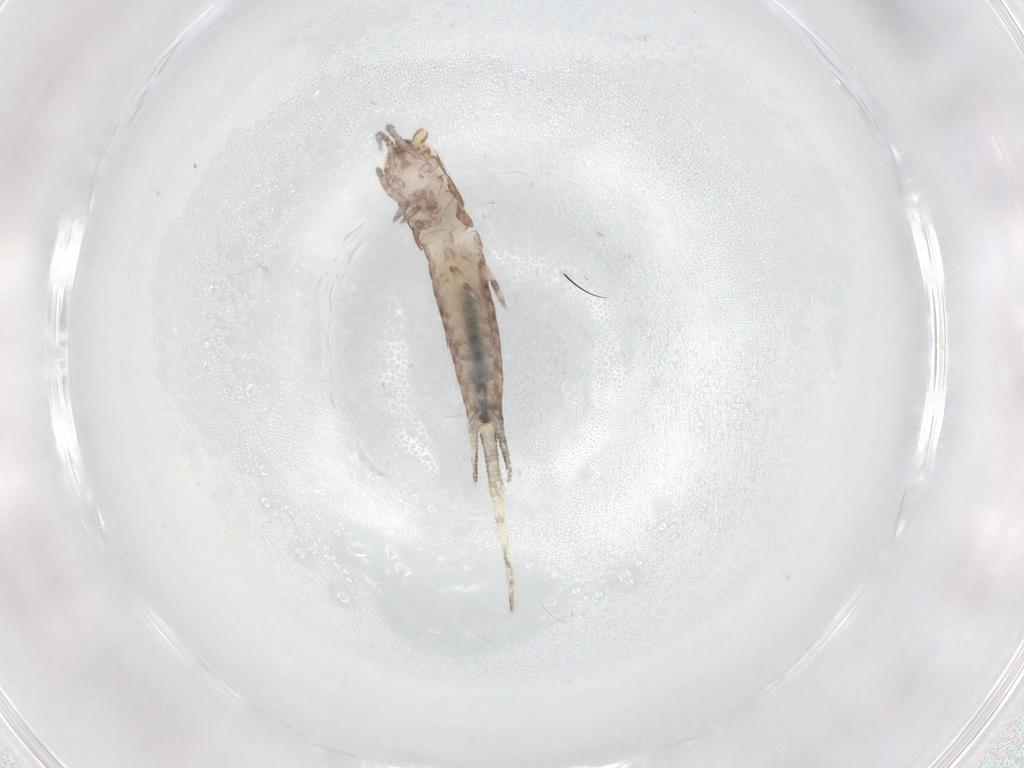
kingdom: Animalia
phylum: Arthropoda
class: Insecta
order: Archaeognatha
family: Machilidae
